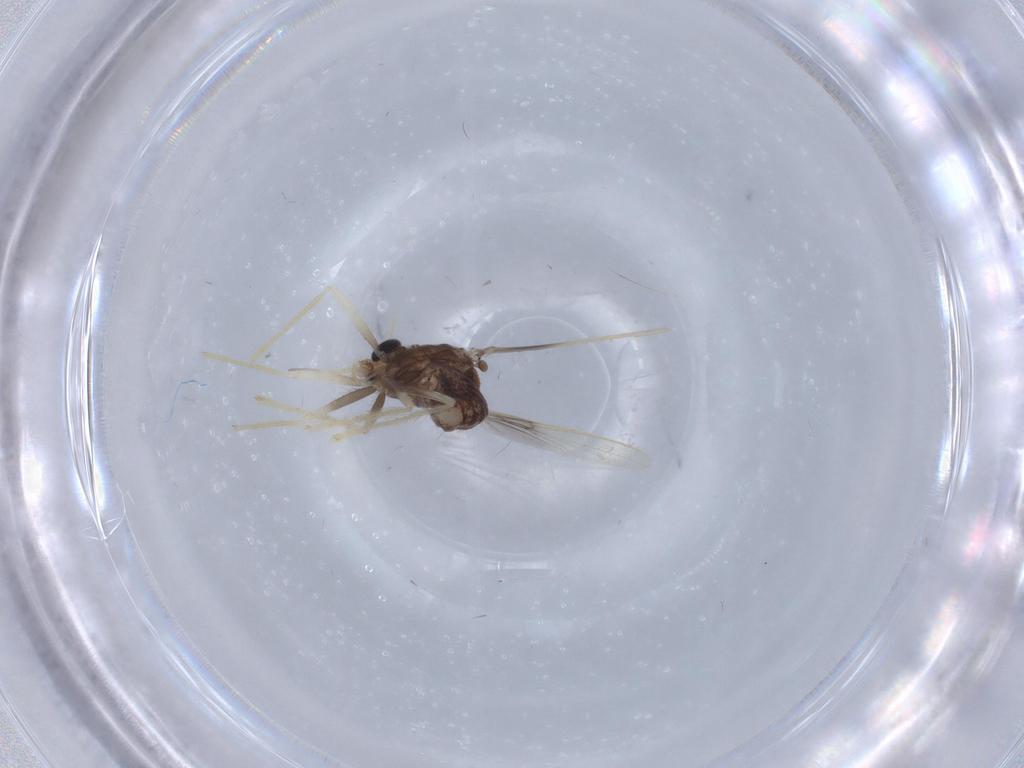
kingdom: Animalia
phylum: Arthropoda
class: Insecta
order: Diptera
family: Chironomidae
